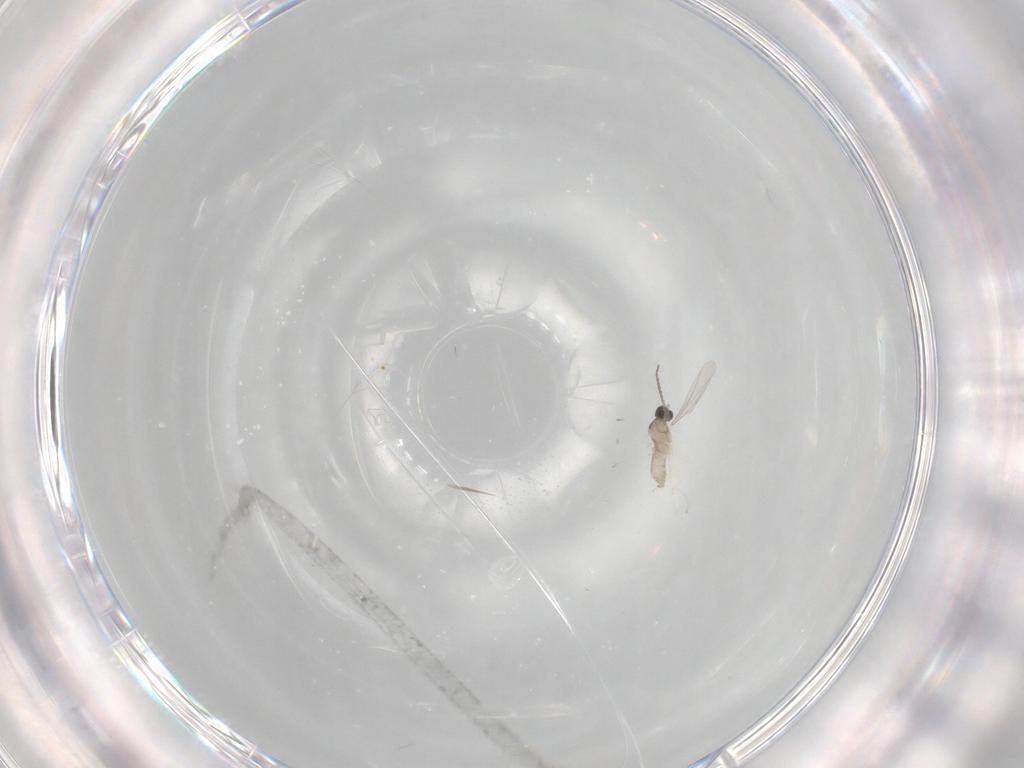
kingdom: Animalia
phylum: Arthropoda
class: Insecta
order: Diptera
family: Cecidomyiidae
